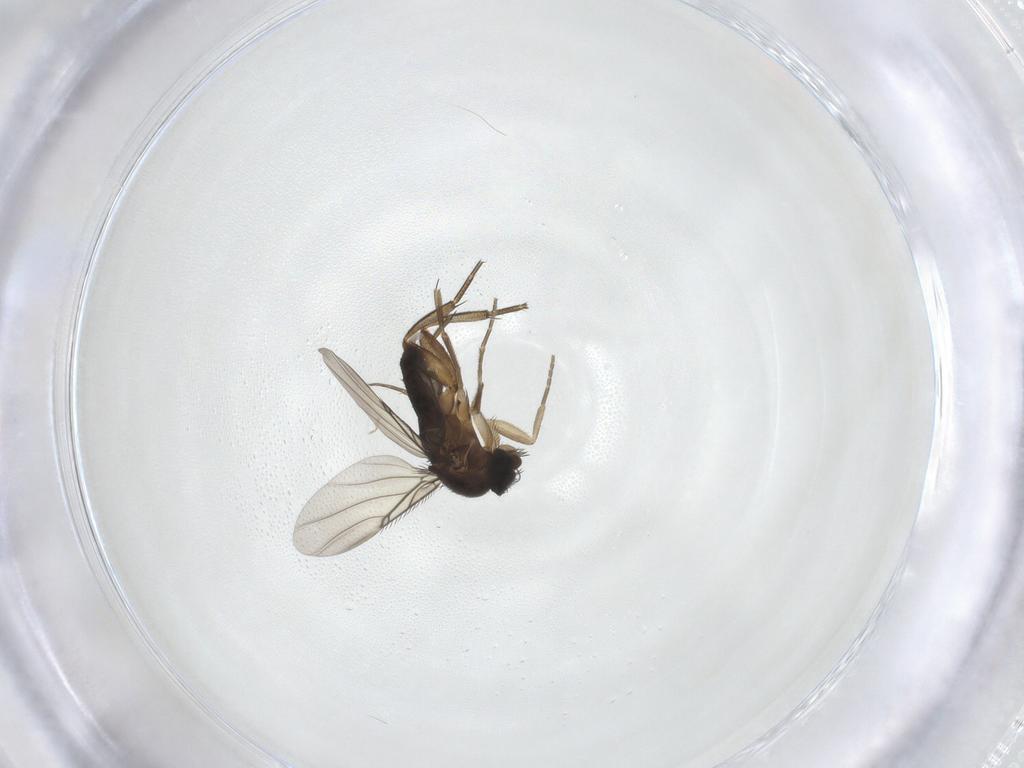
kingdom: Animalia
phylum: Arthropoda
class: Insecta
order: Diptera
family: Phoridae
